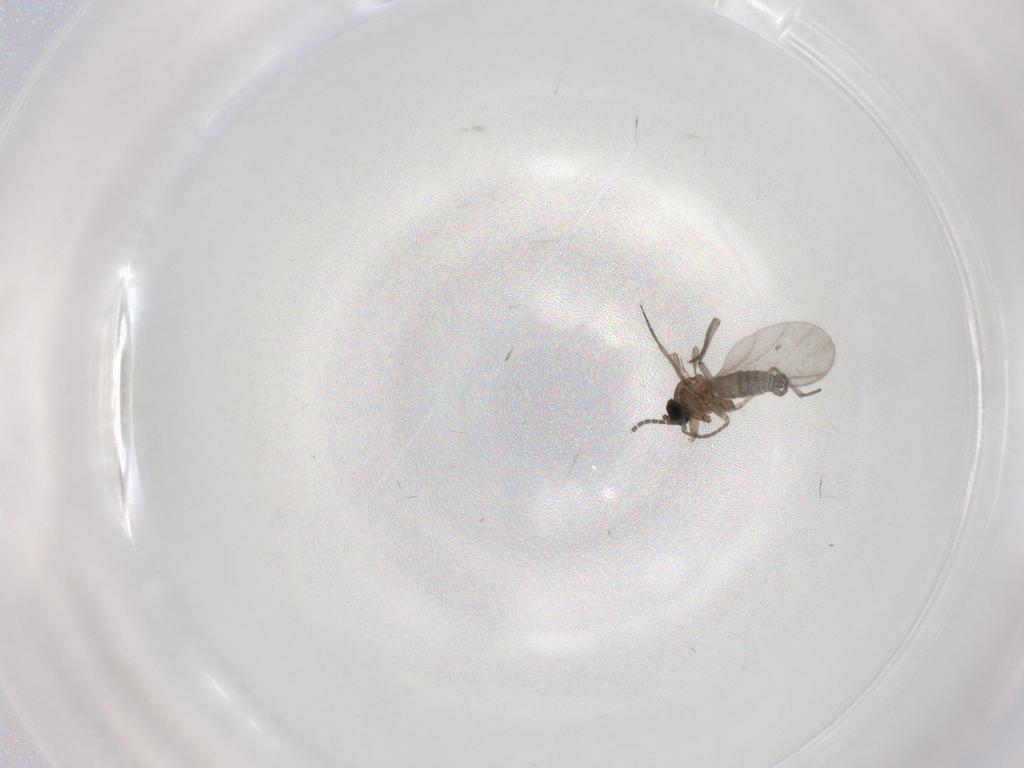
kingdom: Animalia
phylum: Arthropoda
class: Insecta
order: Diptera
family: Sciaridae
